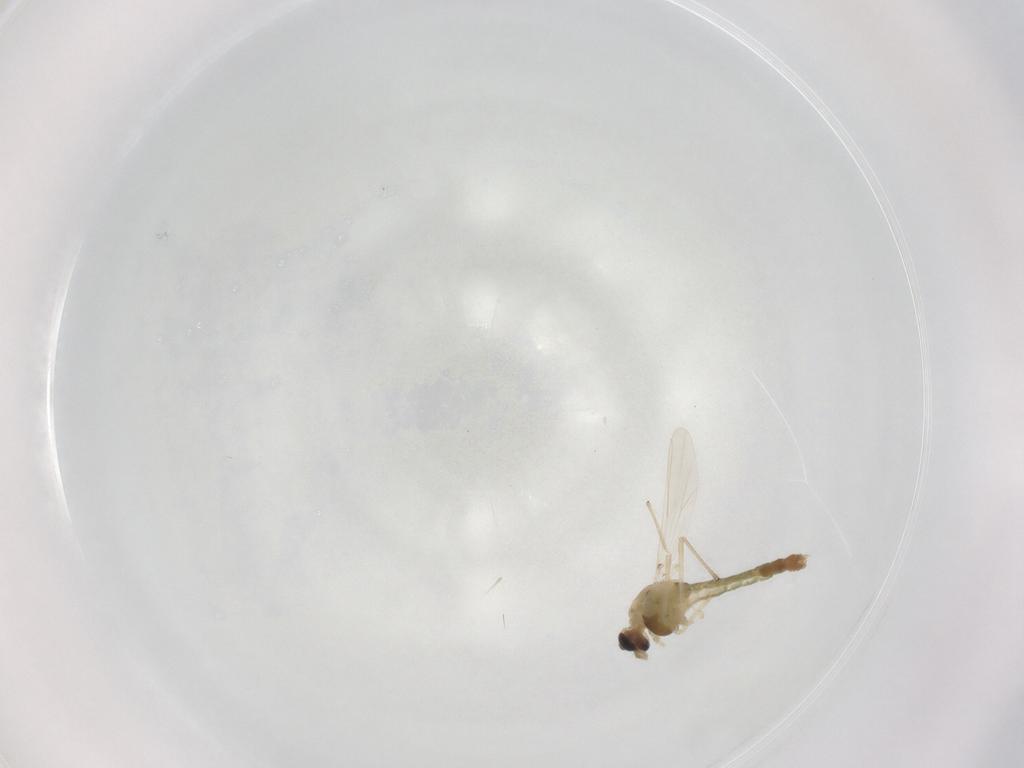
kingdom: Animalia
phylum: Arthropoda
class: Insecta
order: Diptera
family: Chironomidae
